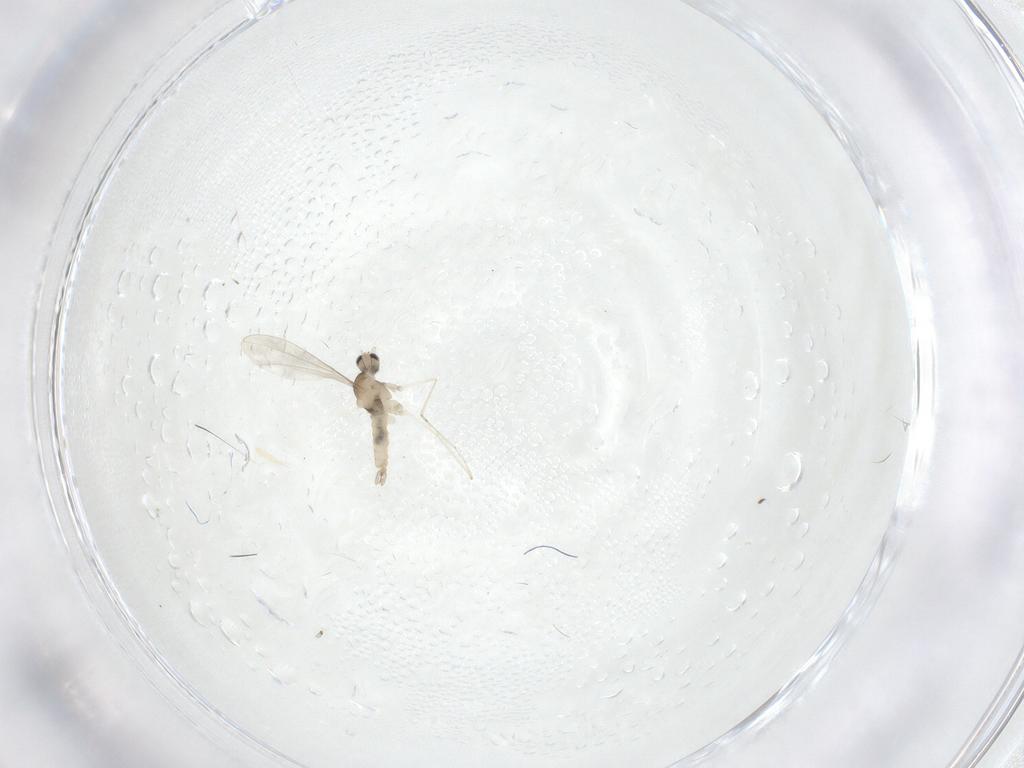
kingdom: Animalia
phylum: Arthropoda
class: Insecta
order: Diptera
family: Cecidomyiidae
